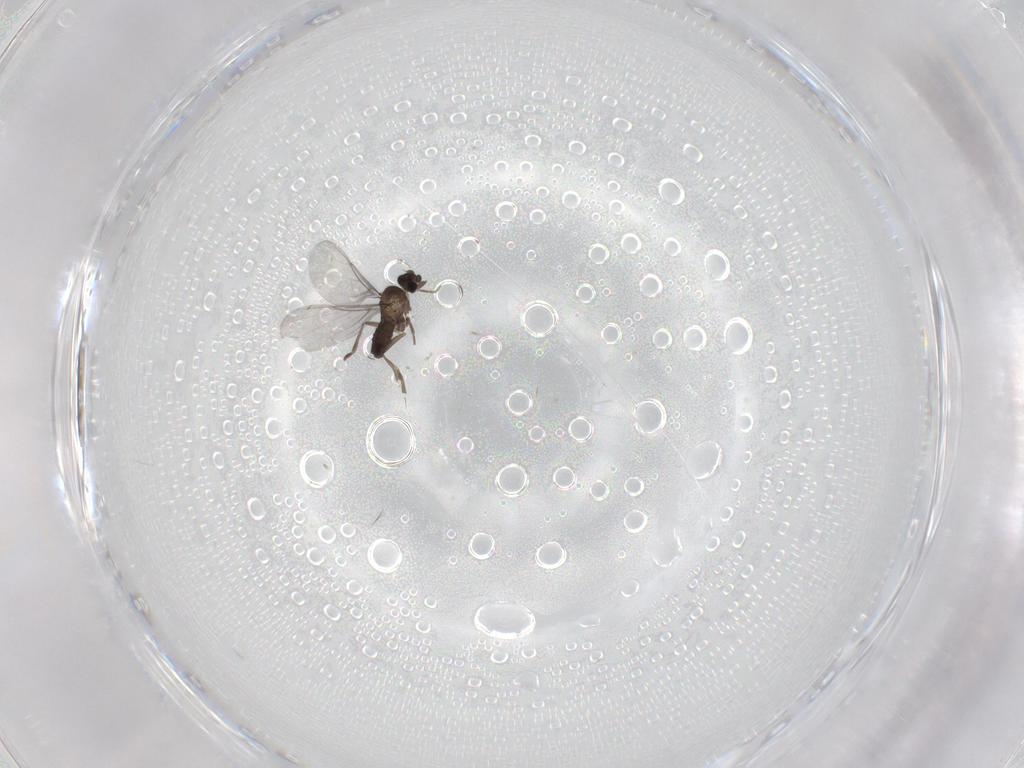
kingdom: Animalia
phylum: Arthropoda
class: Insecta
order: Diptera
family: Phoridae
